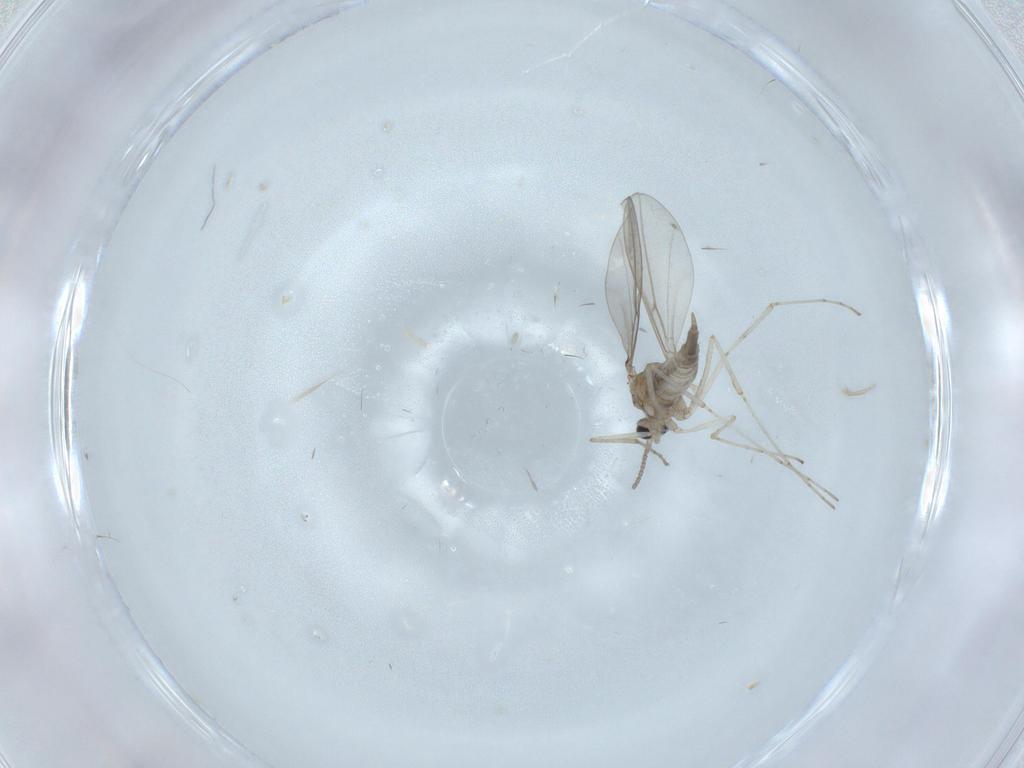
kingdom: Animalia
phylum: Arthropoda
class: Insecta
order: Diptera
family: Cecidomyiidae
